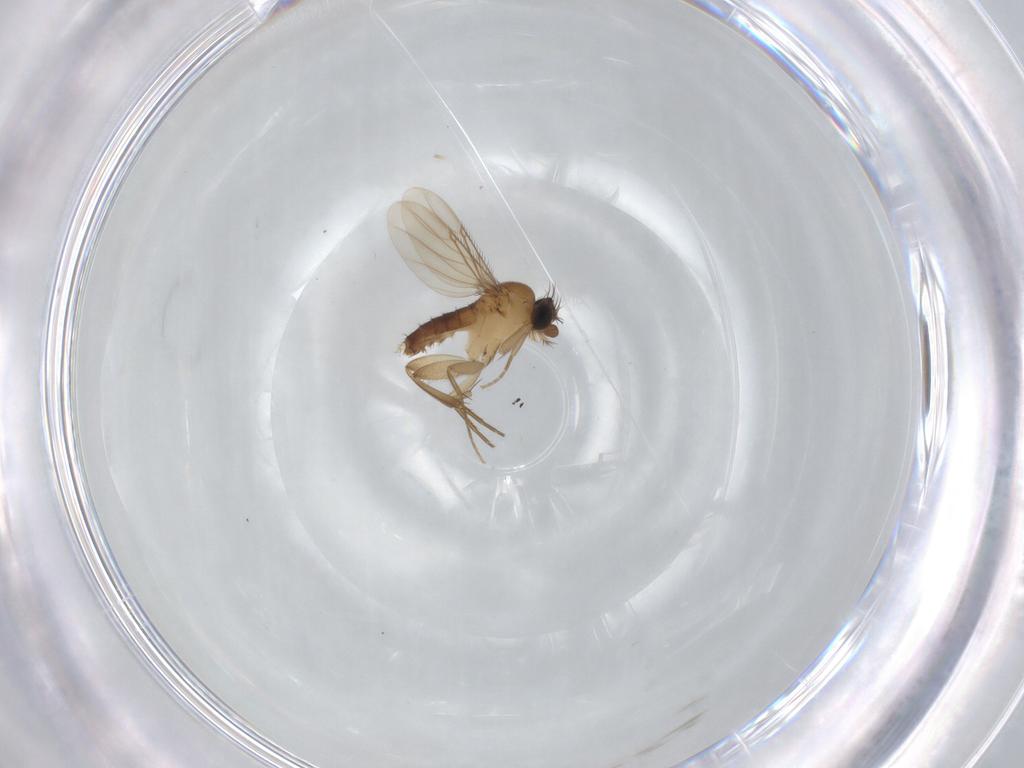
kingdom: Animalia
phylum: Arthropoda
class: Insecta
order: Diptera
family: Phoridae
